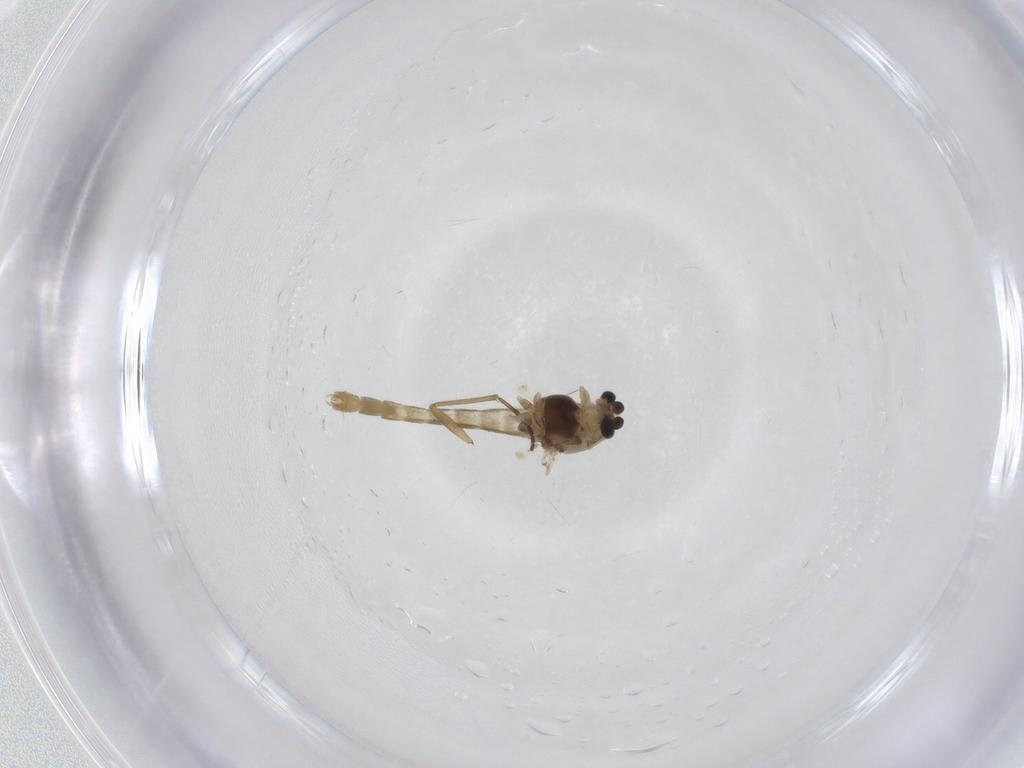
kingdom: Animalia
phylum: Arthropoda
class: Insecta
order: Diptera
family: Chironomidae
